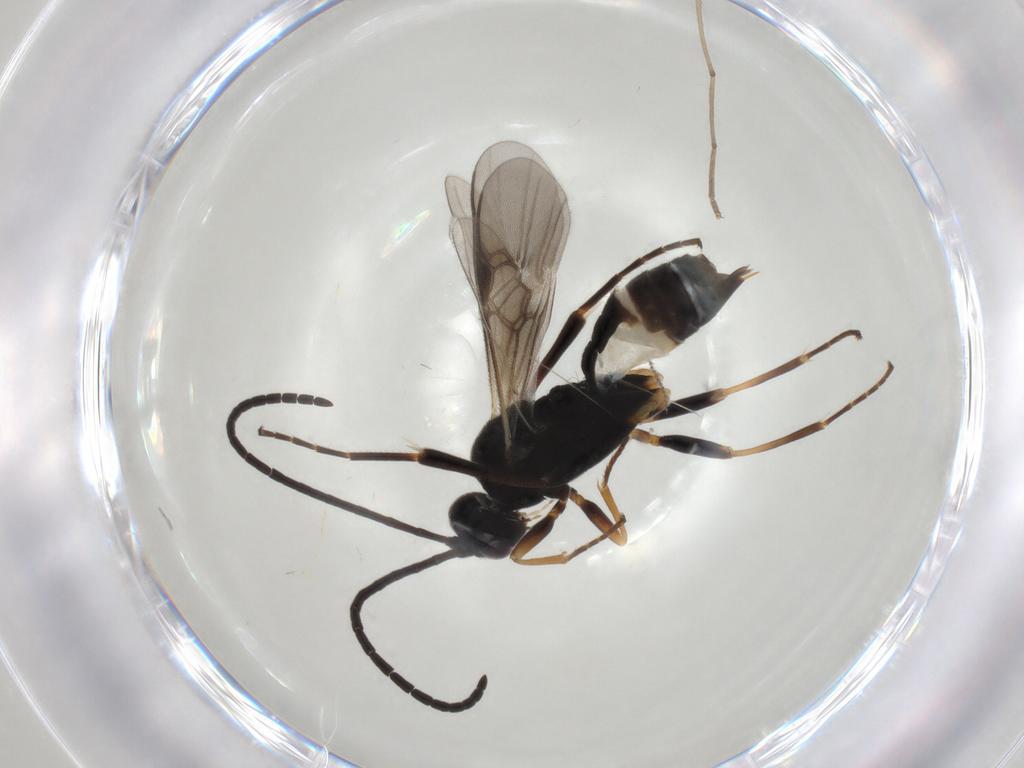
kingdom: Animalia
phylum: Arthropoda
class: Insecta
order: Hymenoptera
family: Braconidae
